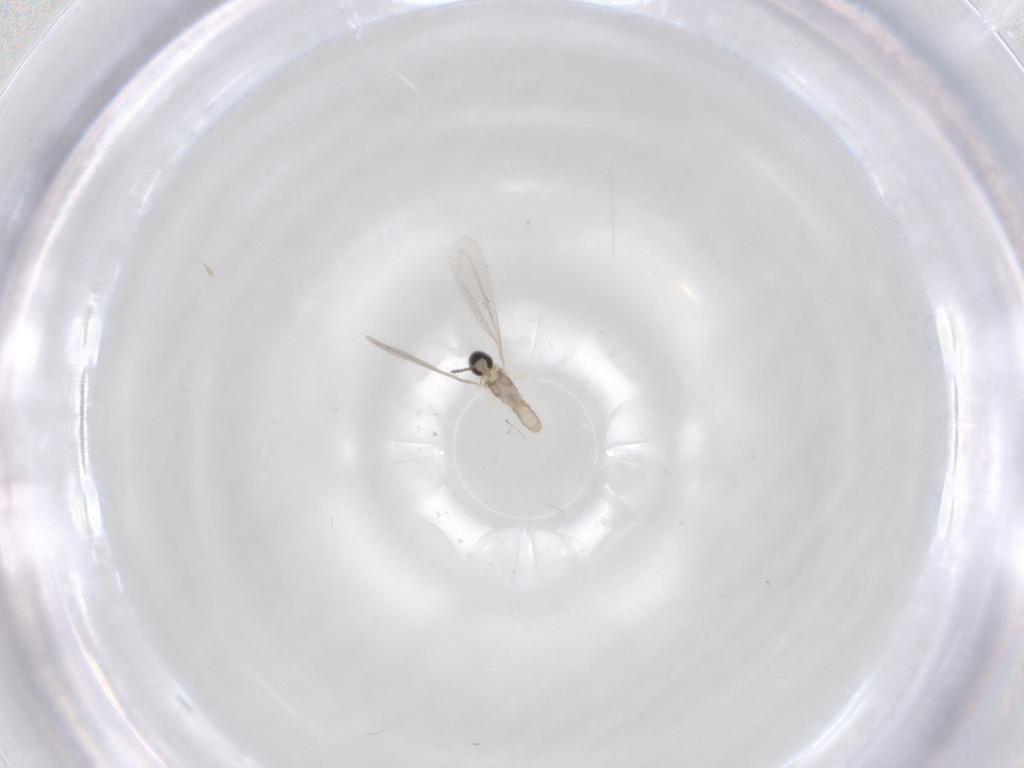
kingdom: Animalia
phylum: Arthropoda
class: Insecta
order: Diptera
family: Cecidomyiidae
